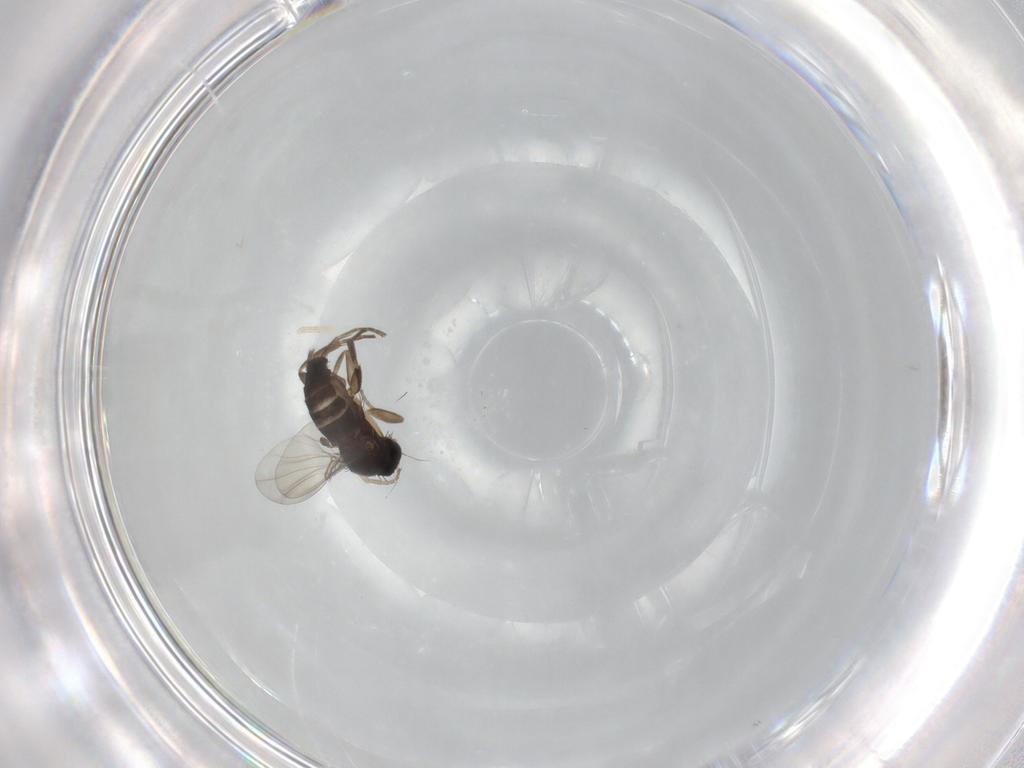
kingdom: Animalia
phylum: Arthropoda
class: Insecta
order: Diptera
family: Phoridae
